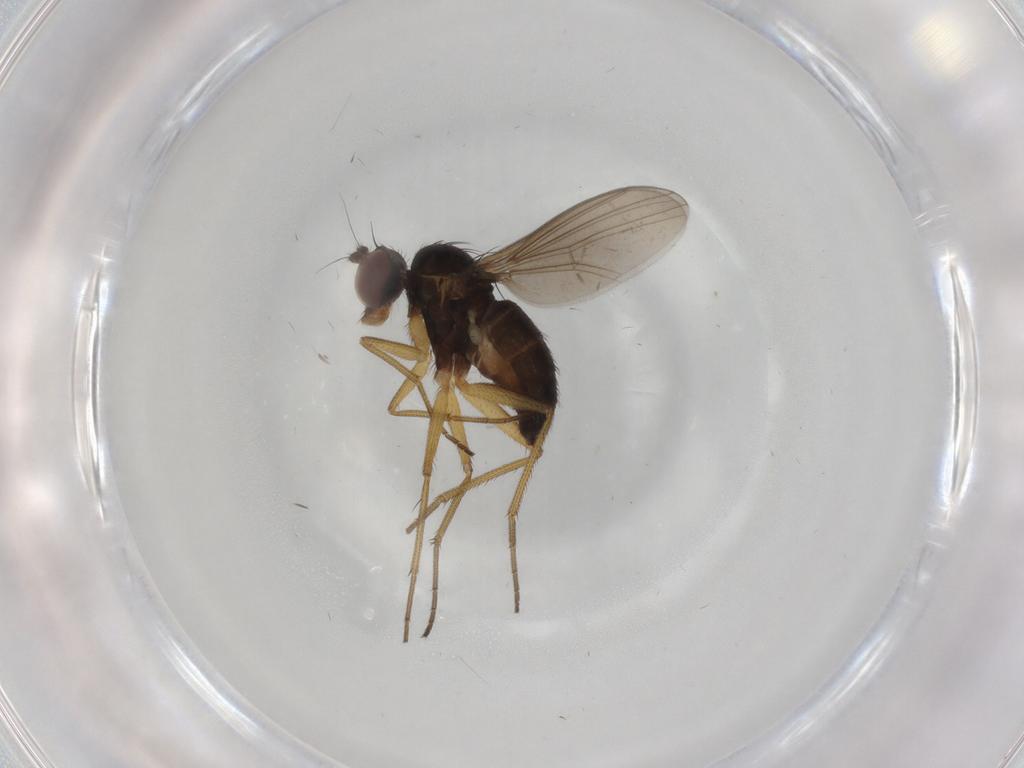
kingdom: Animalia
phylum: Arthropoda
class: Insecta
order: Diptera
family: Dolichopodidae
